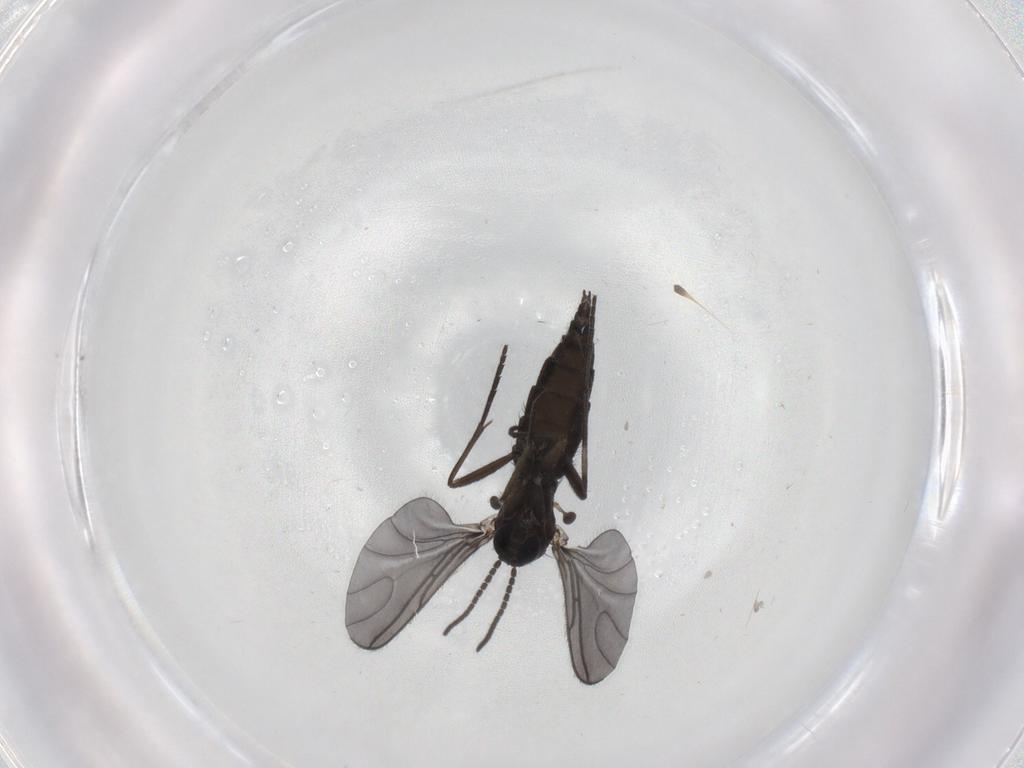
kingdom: Animalia
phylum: Arthropoda
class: Insecta
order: Diptera
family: Sciaridae
